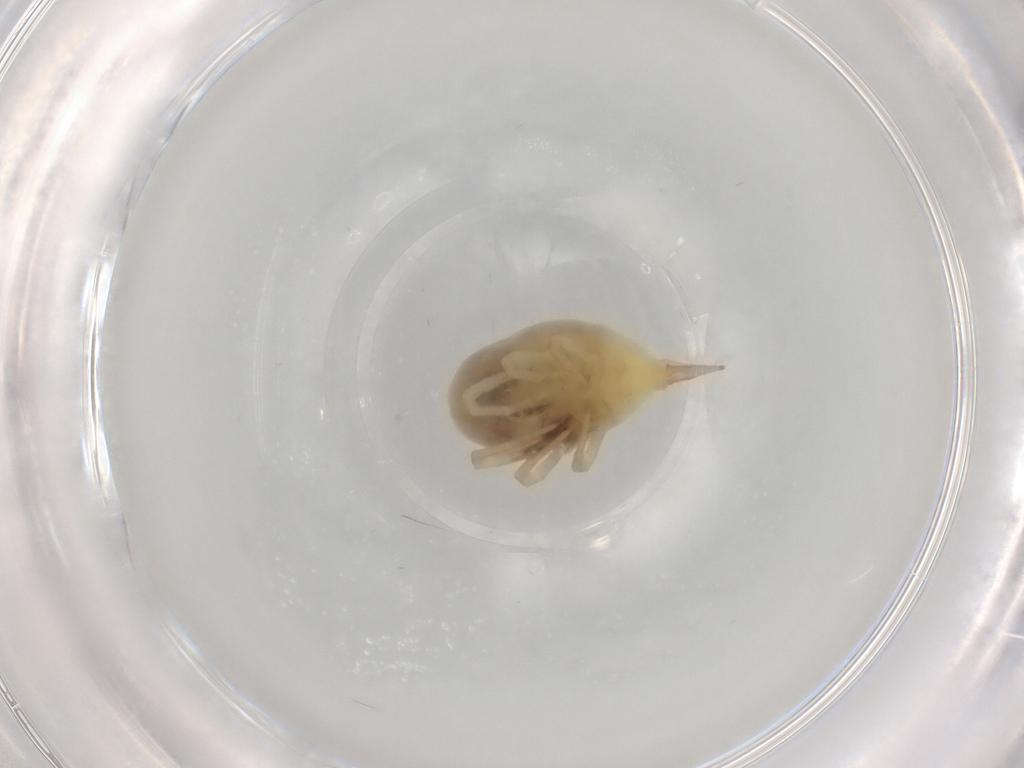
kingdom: Animalia
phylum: Arthropoda
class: Arachnida
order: Trombidiformes
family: Bdellidae
